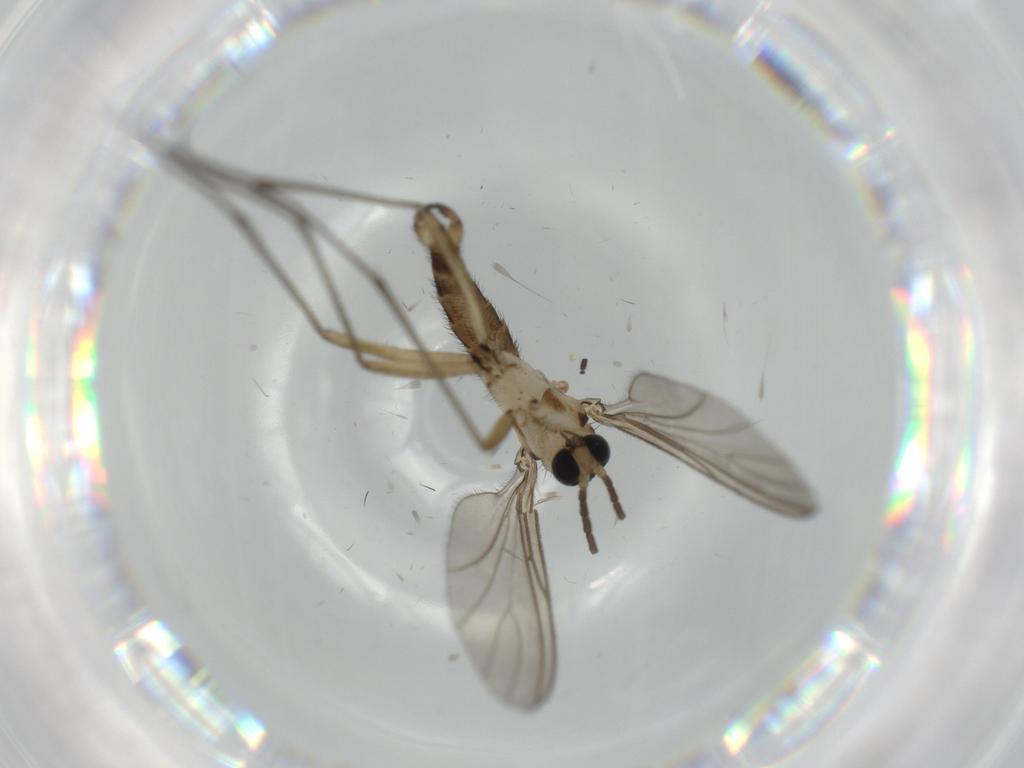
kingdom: Animalia
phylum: Arthropoda
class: Insecta
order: Diptera
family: Sciaridae
